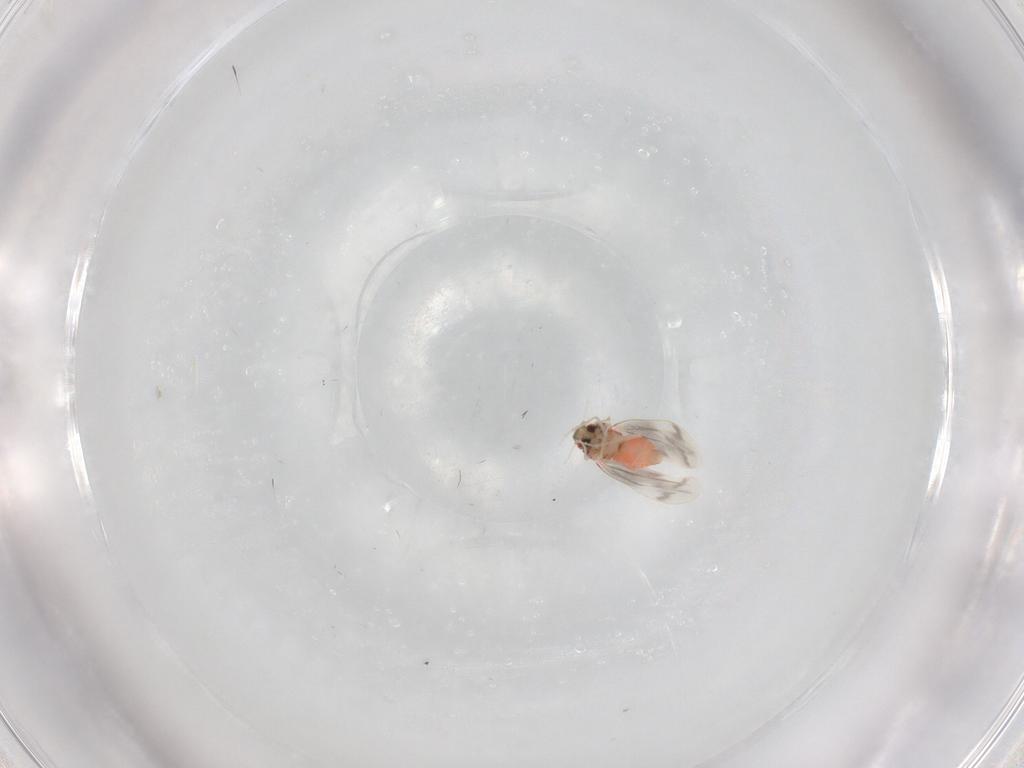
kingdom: Animalia
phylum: Arthropoda
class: Insecta
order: Hemiptera
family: Aleyrodidae
